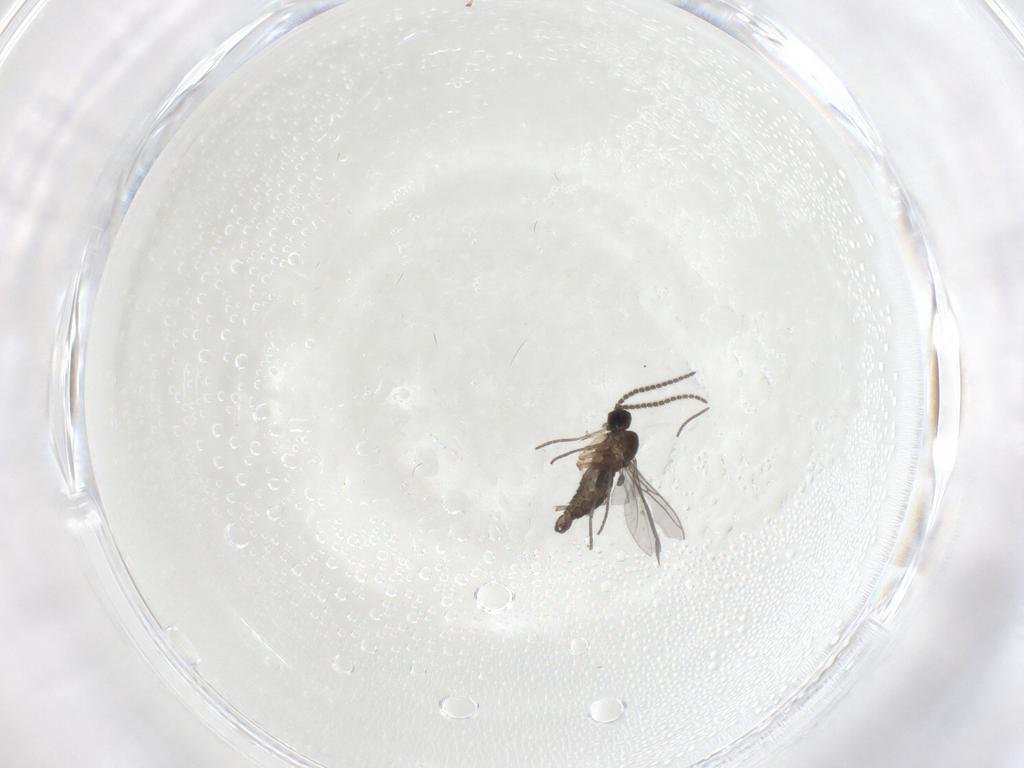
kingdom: Animalia
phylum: Arthropoda
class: Insecta
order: Diptera
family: Sciaridae
